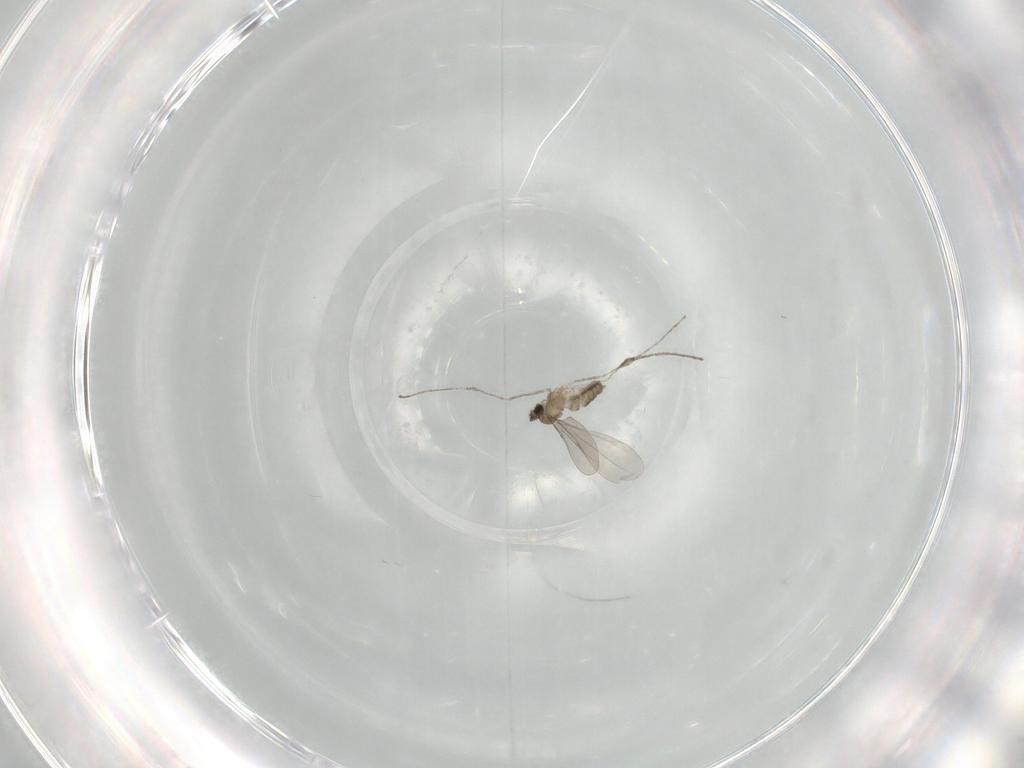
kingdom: Animalia
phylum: Arthropoda
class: Insecta
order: Diptera
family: Cecidomyiidae
